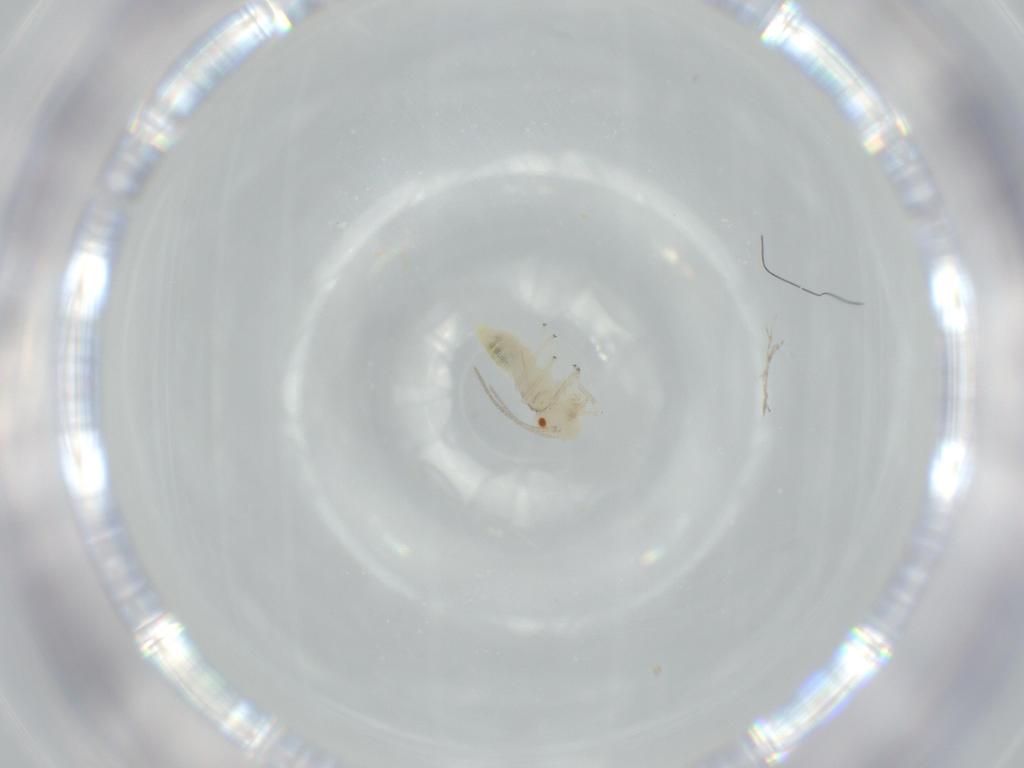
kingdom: Animalia
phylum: Arthropoda
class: Insecta
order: Psocodea
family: Caeciliusidae
